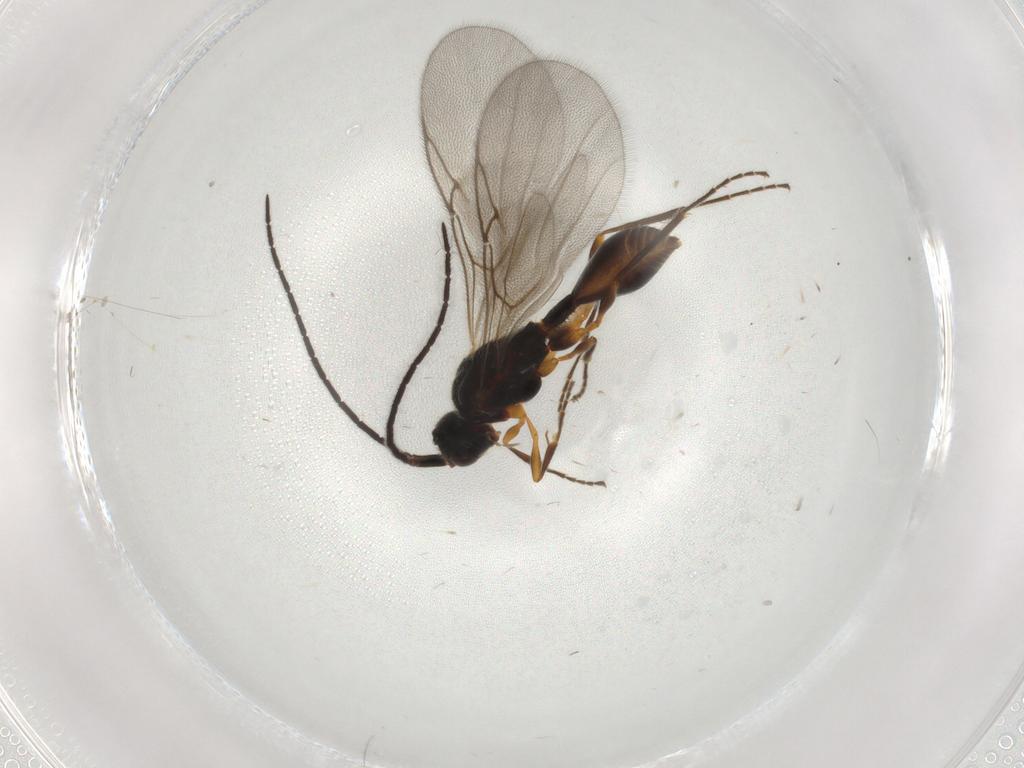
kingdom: Animalia
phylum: Arthropoda
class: Insecta
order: Hymenoptera
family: Diapriidae
